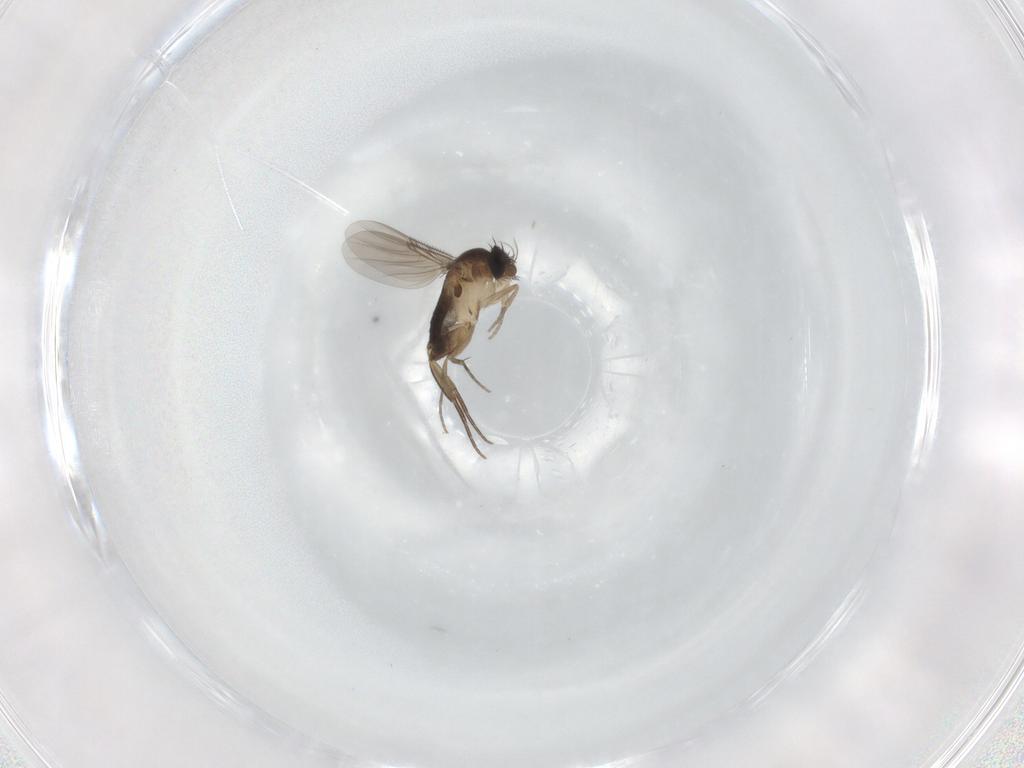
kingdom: Animalia
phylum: Arthropoda
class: Insecta
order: Diptera
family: Phoridae
